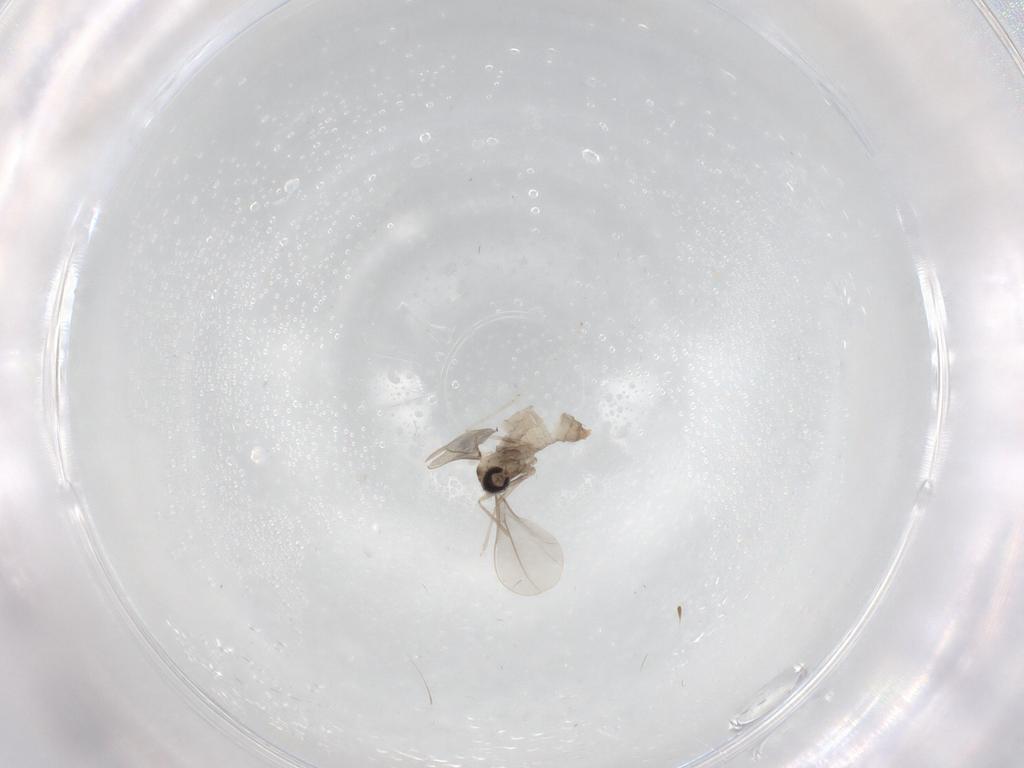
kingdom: Animalia
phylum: Arthropoda
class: Insecta
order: Diptera
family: Cecidomyiidae
